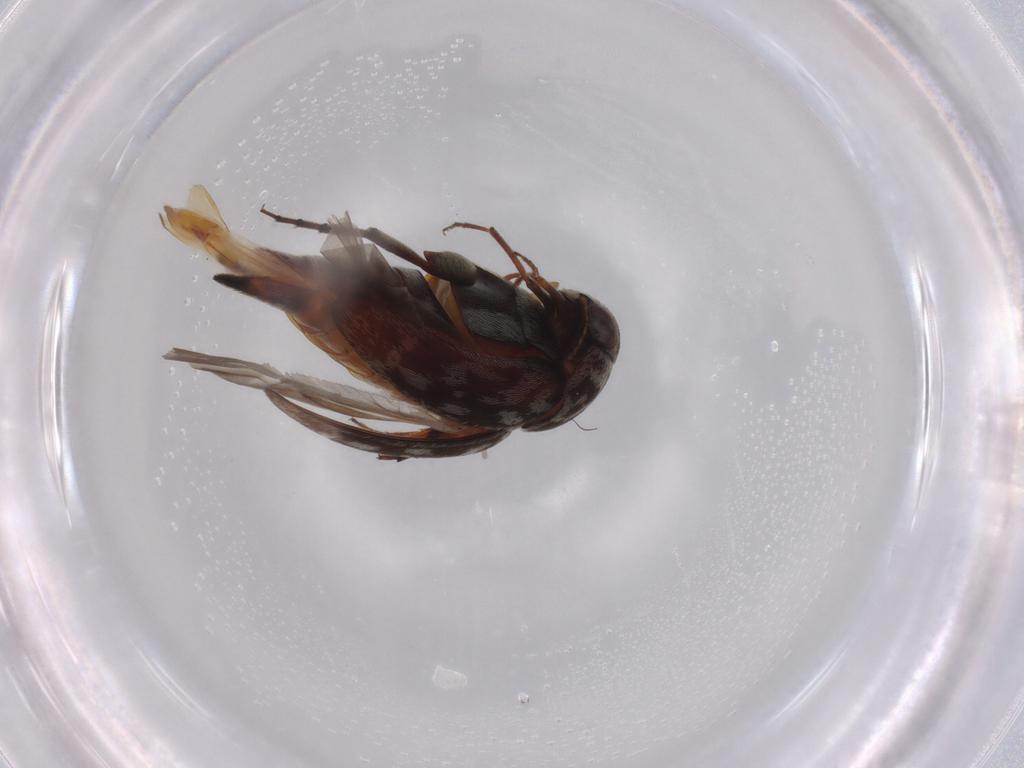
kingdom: Animalia
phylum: Arthropoda
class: Insecta
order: Coleoptera
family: Mordellidae
